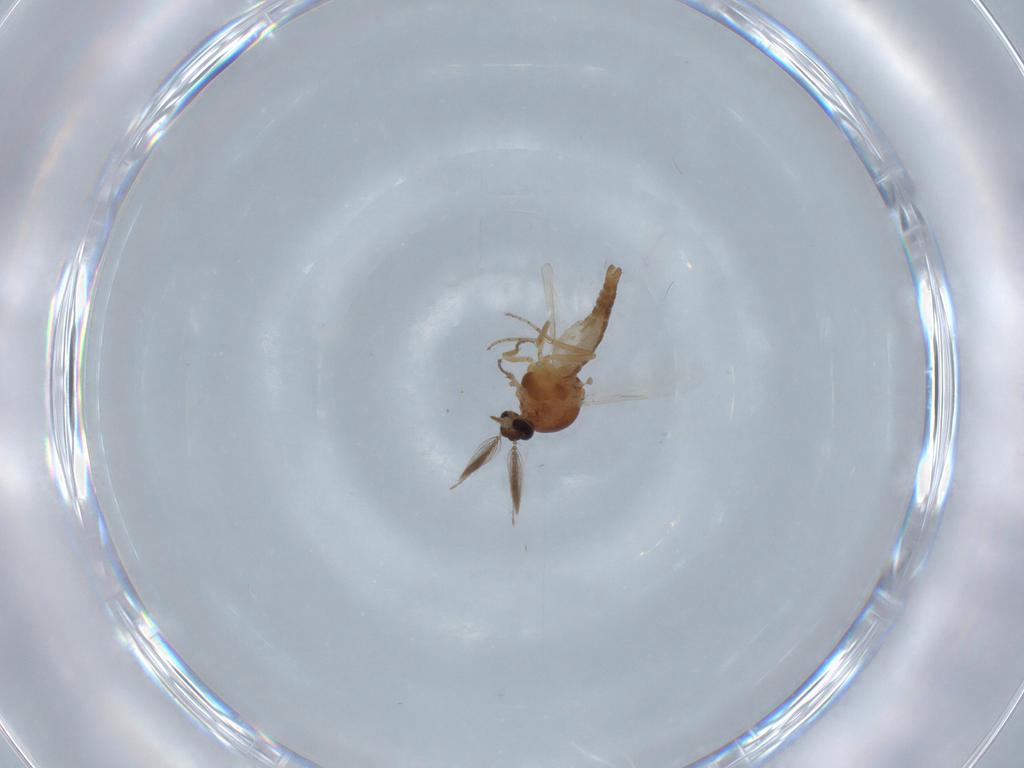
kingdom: Animalia
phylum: Arthropoda
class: Insecta
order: Diptera
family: Ceratopogonidae
